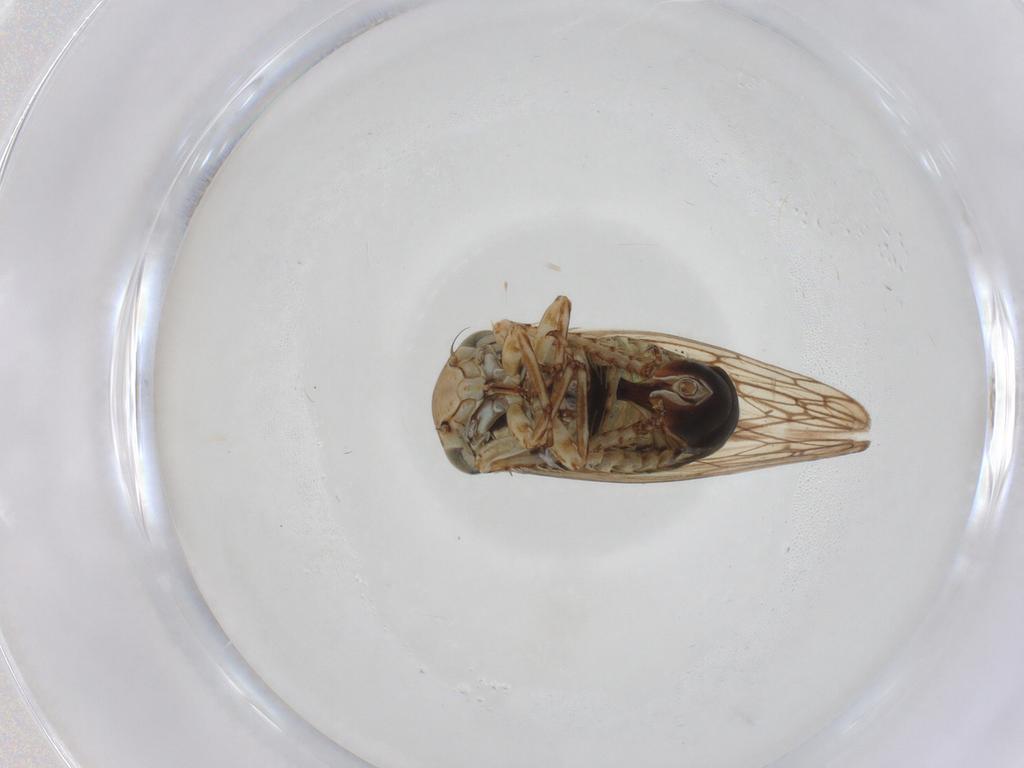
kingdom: Animalia
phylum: Arthropoda
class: Insecta
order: Hemiptera
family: Cicadellidae
